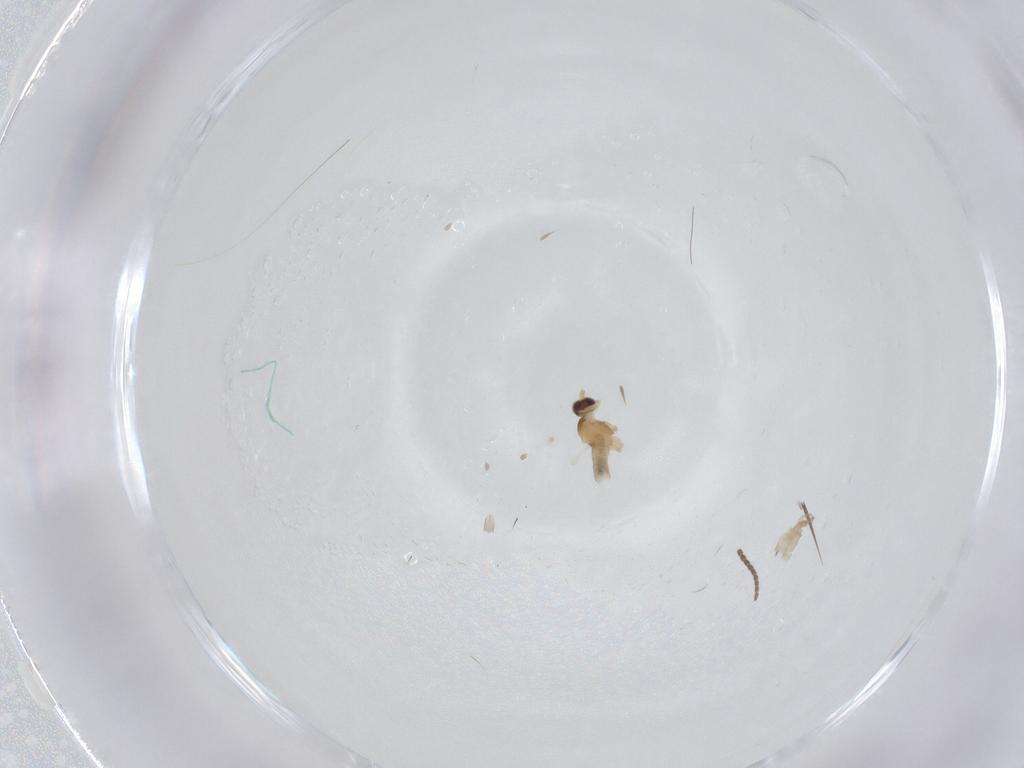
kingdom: Animalia
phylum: Arthropoda
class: Insecta
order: Diptera
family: Cecidomyiidae
